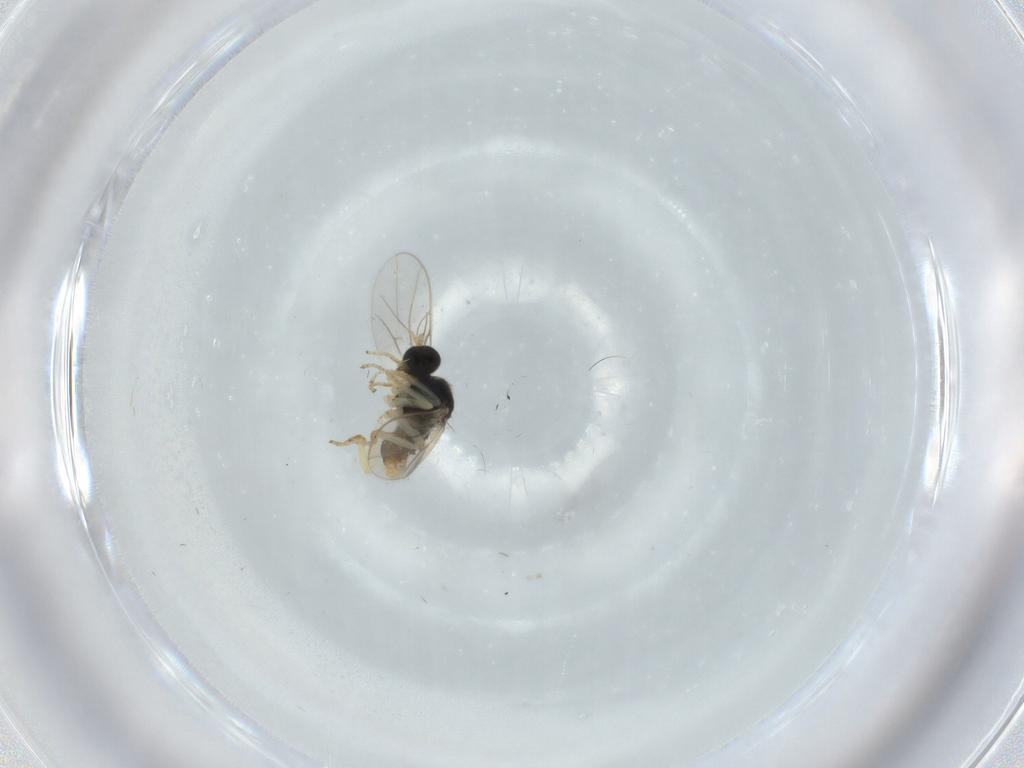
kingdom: Animalia
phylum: Arthropoda
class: Insecta
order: Diptera
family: Hybotidae
